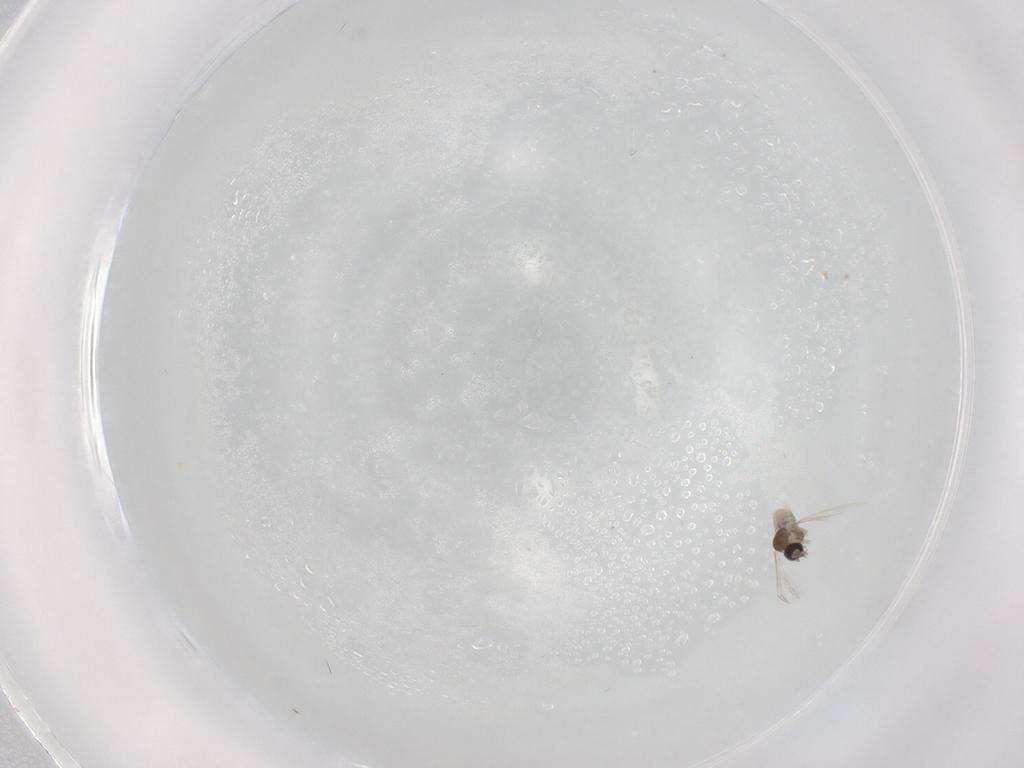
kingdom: Animalia
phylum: Arthropoda
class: Insecta
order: Diptera
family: Cecidomyiidae
